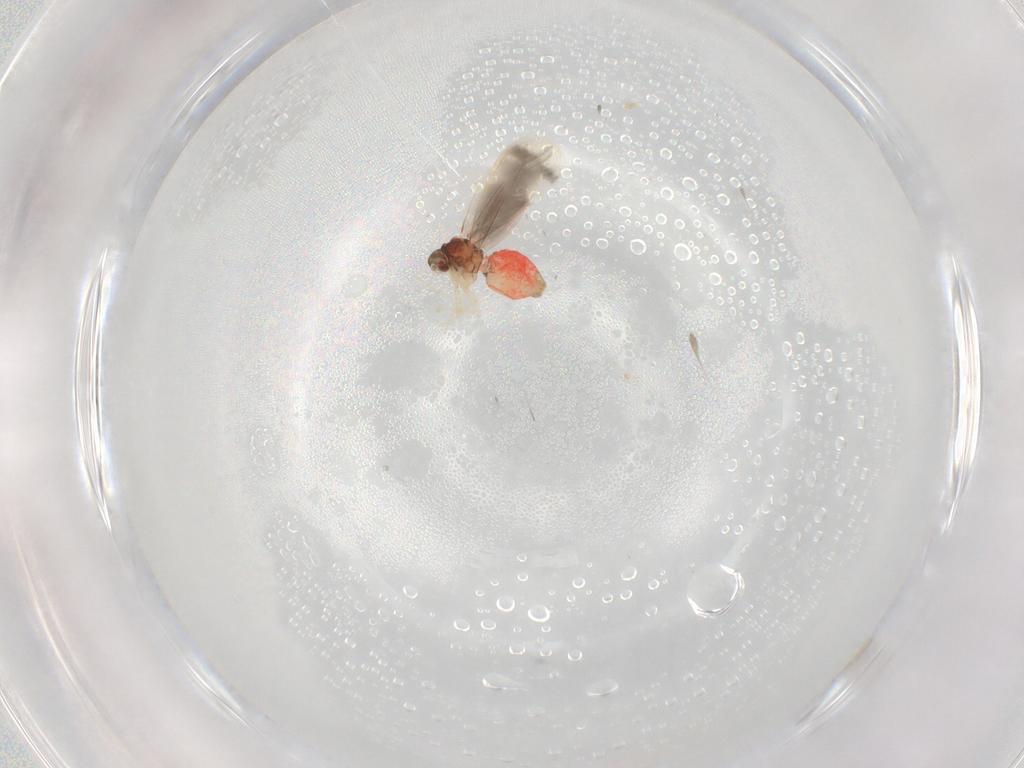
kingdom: Animalia
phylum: Arthropoda
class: Insecta
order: Hemiptera
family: Aleyrodidae
